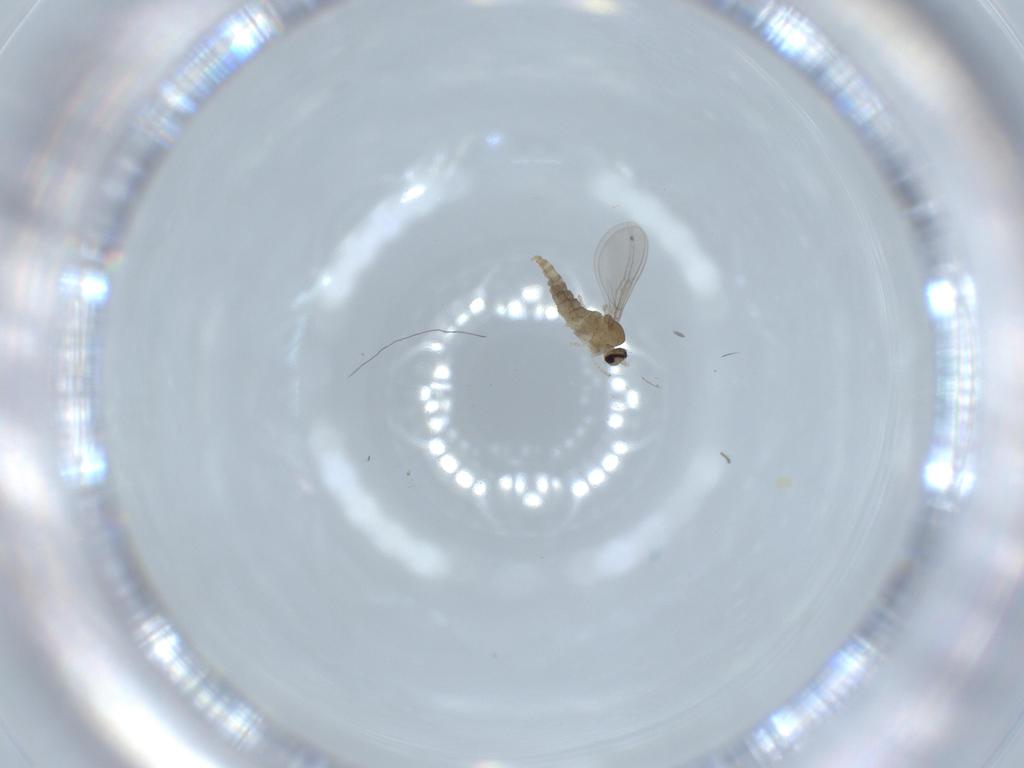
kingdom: Animalia
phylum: Arthropoda
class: Insecta
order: Diptera
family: Cecidomyiidae
